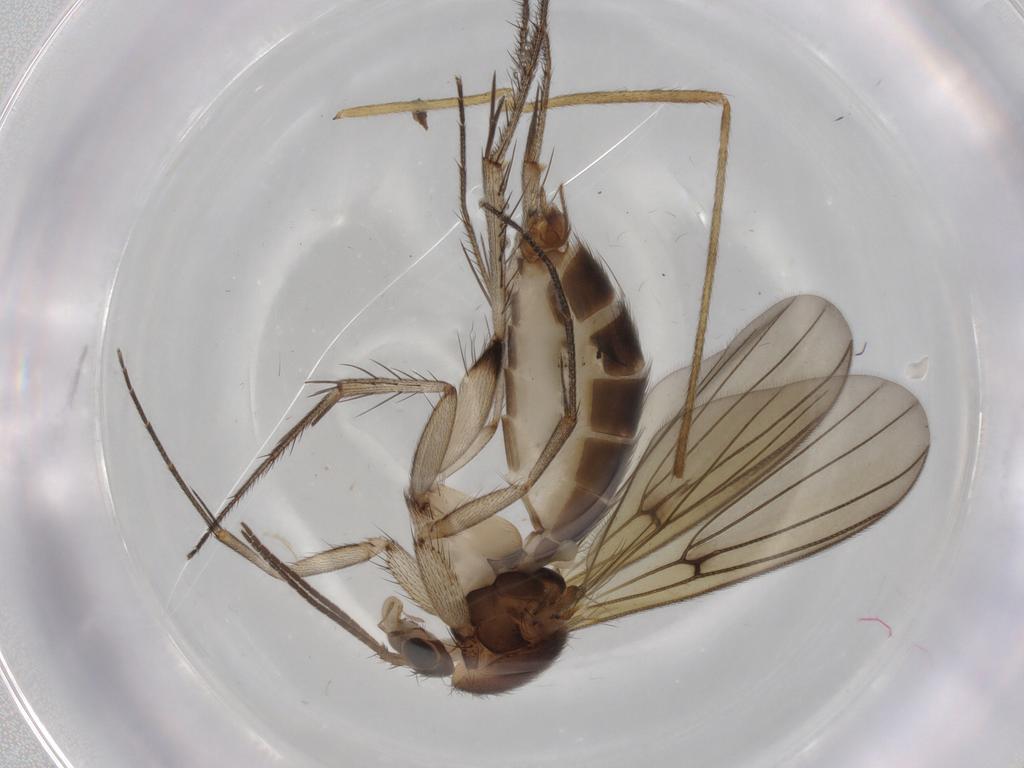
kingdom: Animalia
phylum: Arthropoda
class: Insecta
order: Diptera
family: Mycetophilidae
